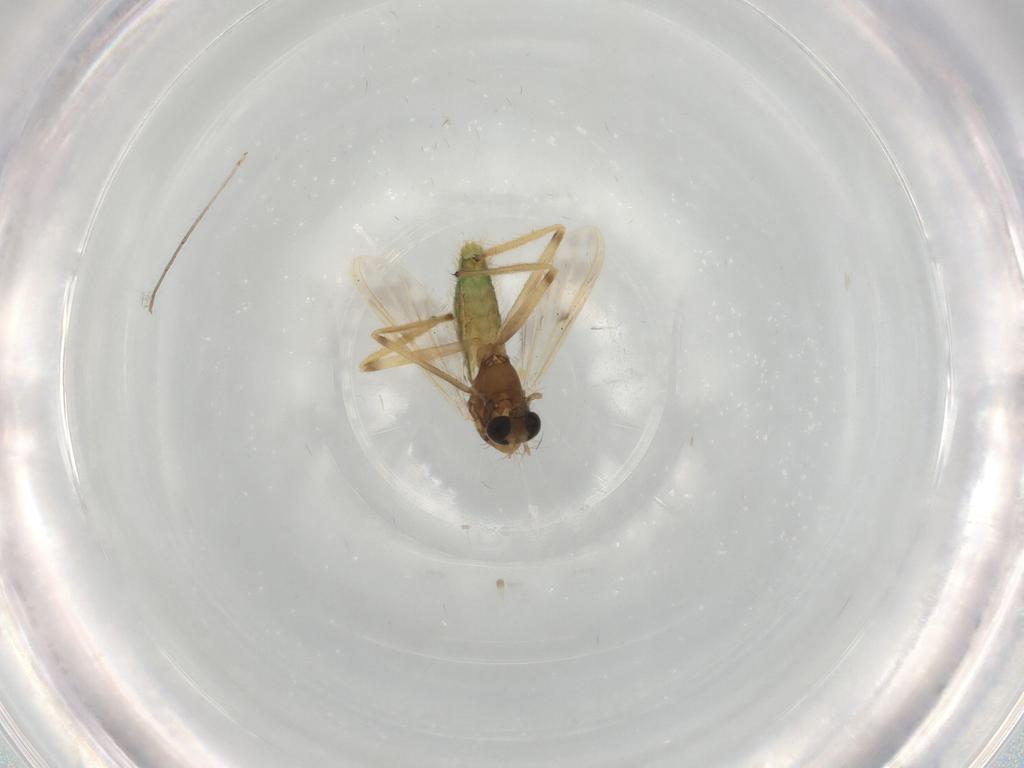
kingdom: Animalia
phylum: Arthropoda
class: Insecta
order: Diptera
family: Chironomidae
